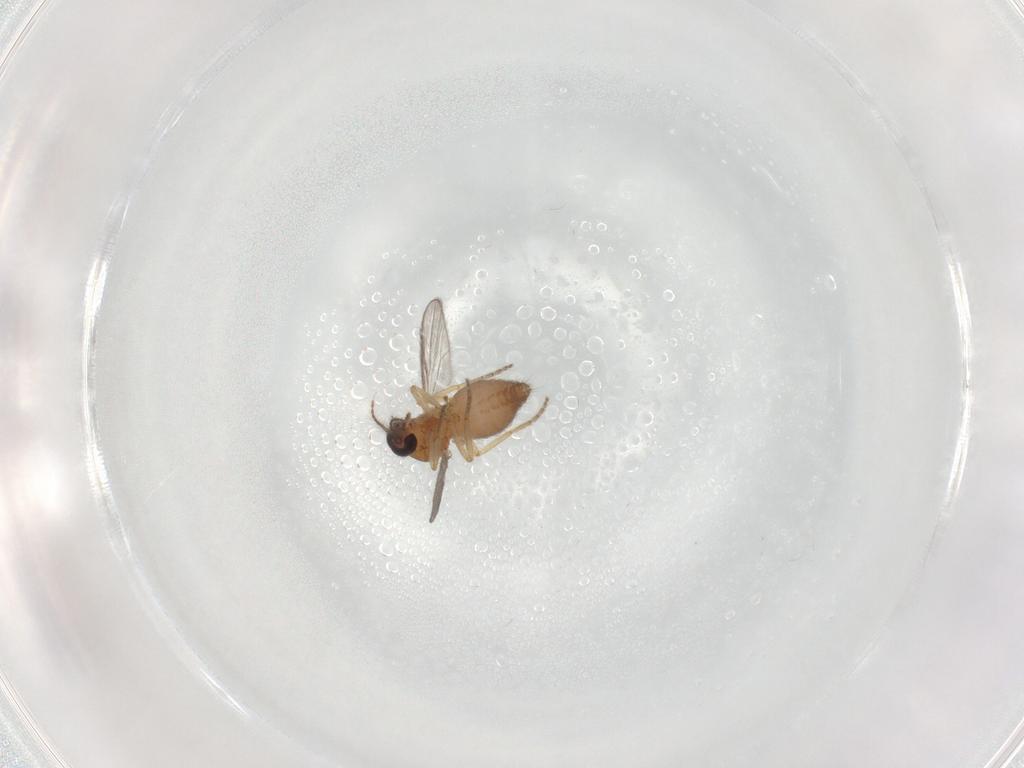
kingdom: Animalia
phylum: Arthropoda
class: Insecta
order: Diptera
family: Ceratopogonidae
